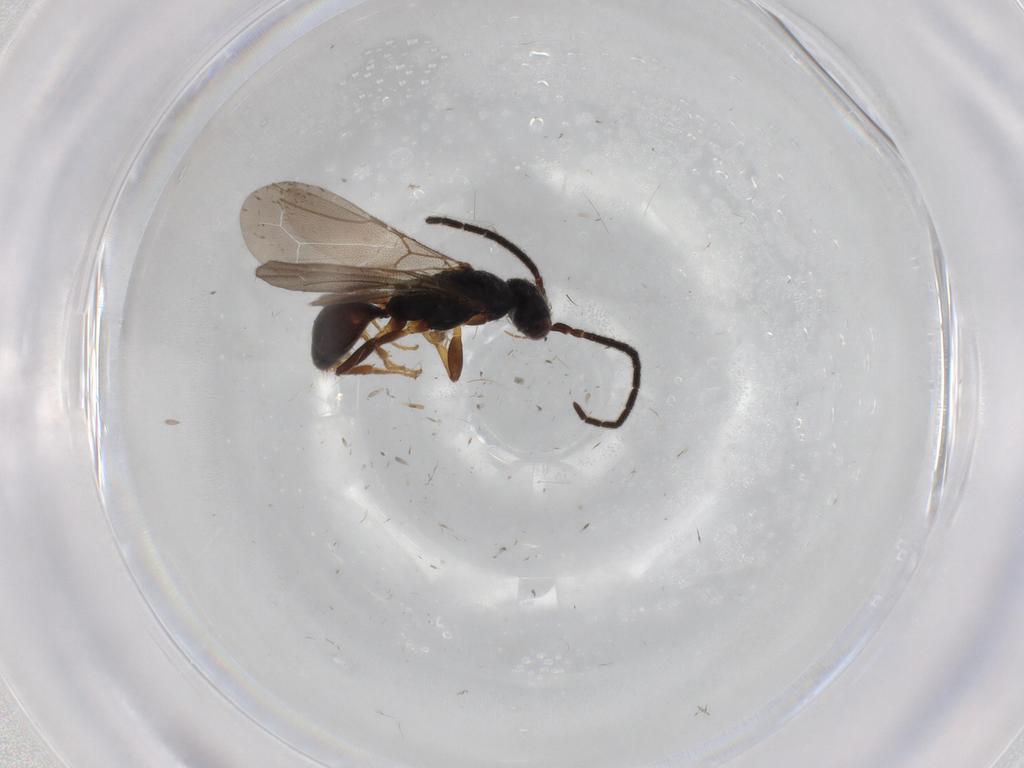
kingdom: Animalia
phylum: Arthropoda
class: Insecta
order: Hymenoptera
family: Bethylidae
